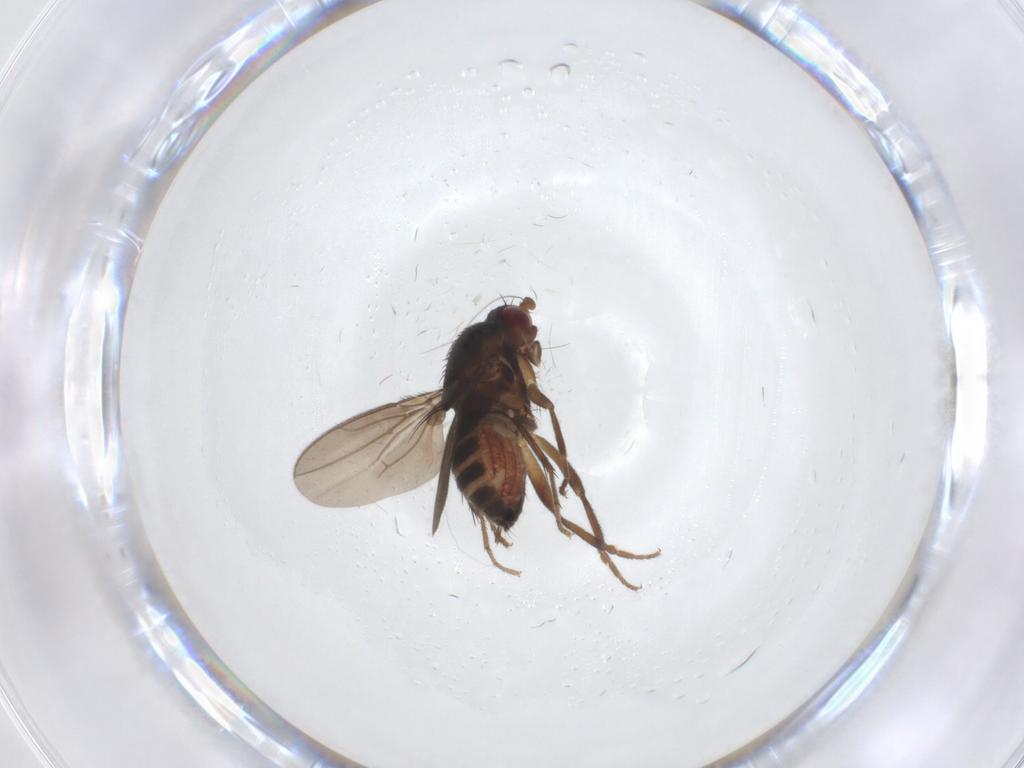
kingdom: Animalia
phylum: Arthropoda
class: Insecta
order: Diptera
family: Phoridae
